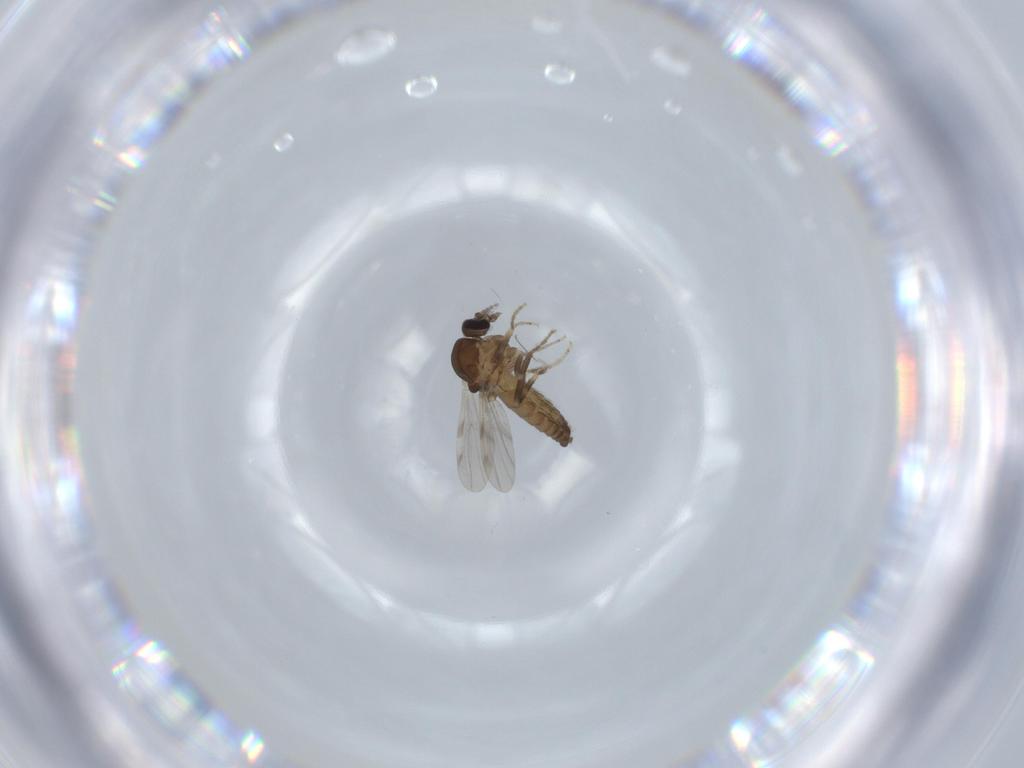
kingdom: Animalia
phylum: Arthropoda
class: Insecta
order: Diptera
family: Ceratopogonidae
